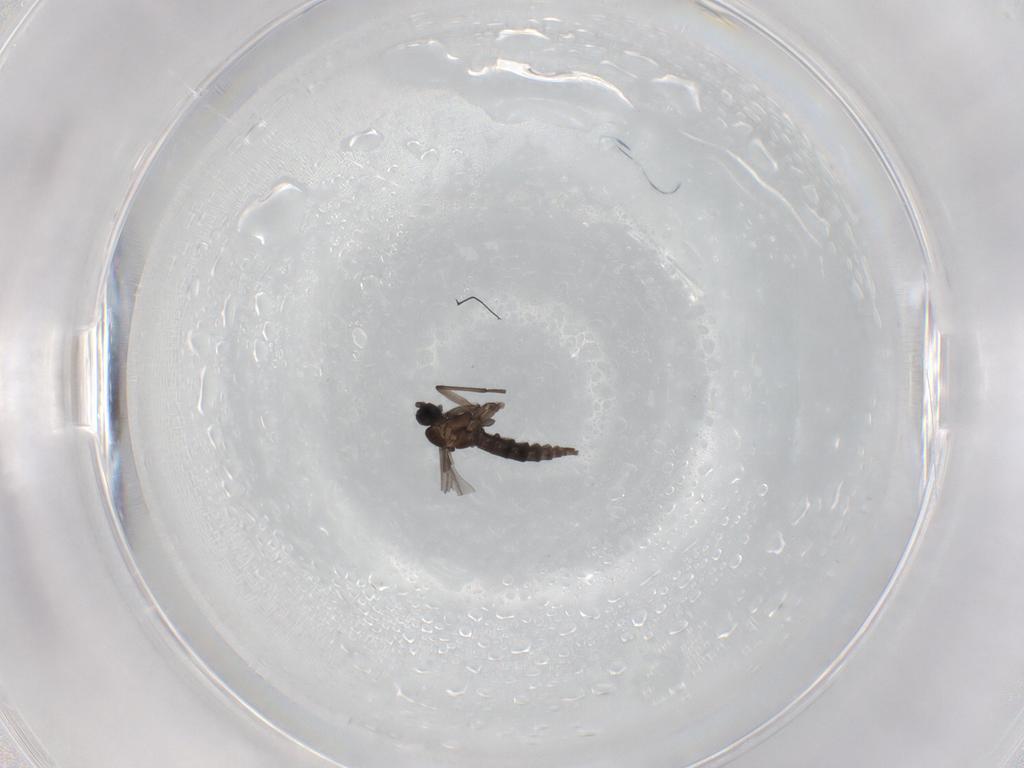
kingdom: Animalia
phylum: Arthropoda
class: Insecta
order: Diptera
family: Sciaridae
